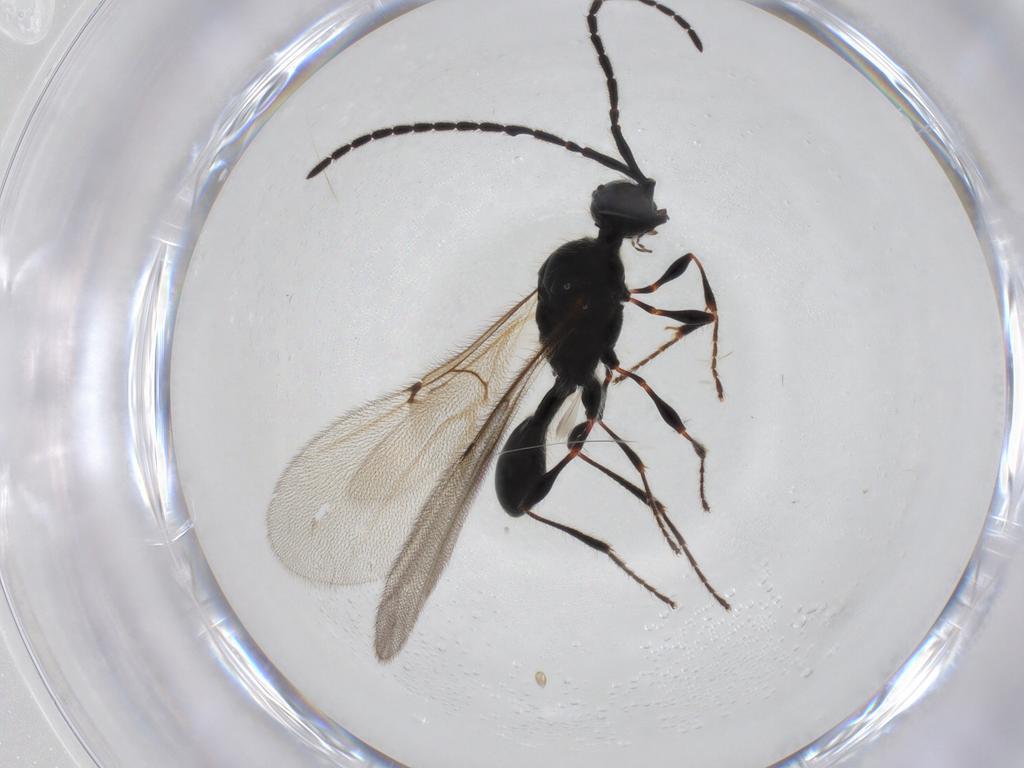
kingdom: Animalia
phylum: Arthropoda
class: Insecta
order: Hymenoptera
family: Diapriidae
